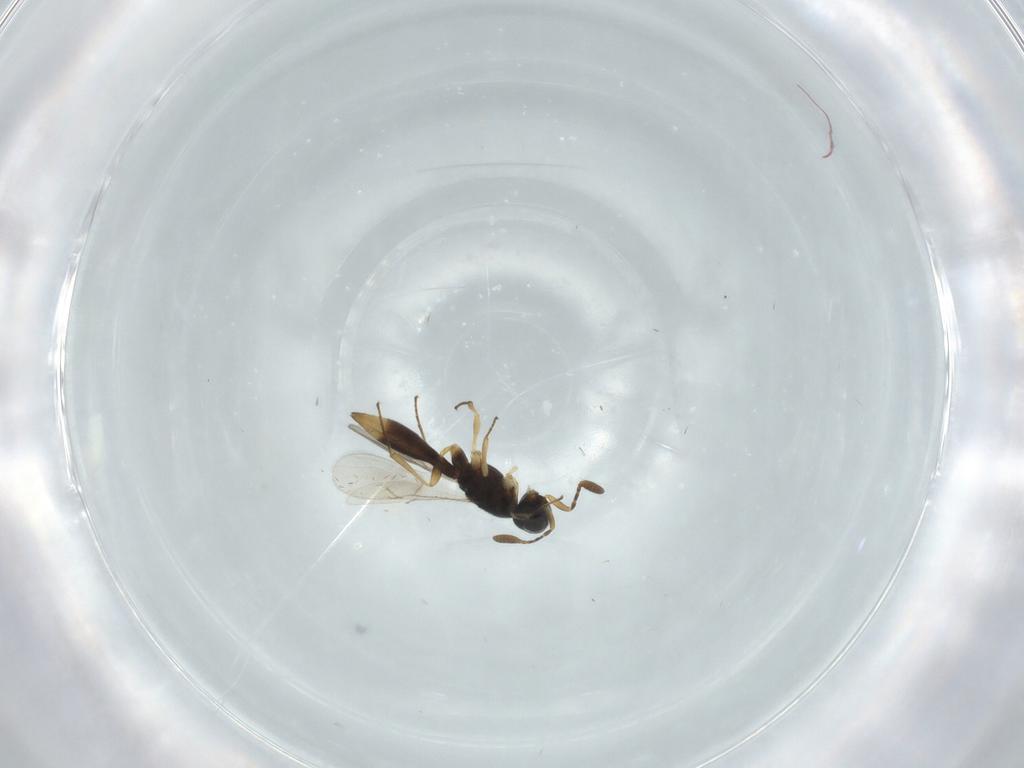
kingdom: Animalia
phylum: Arthropoda
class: Insecta
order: Hymenoptera
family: Scelionidae
